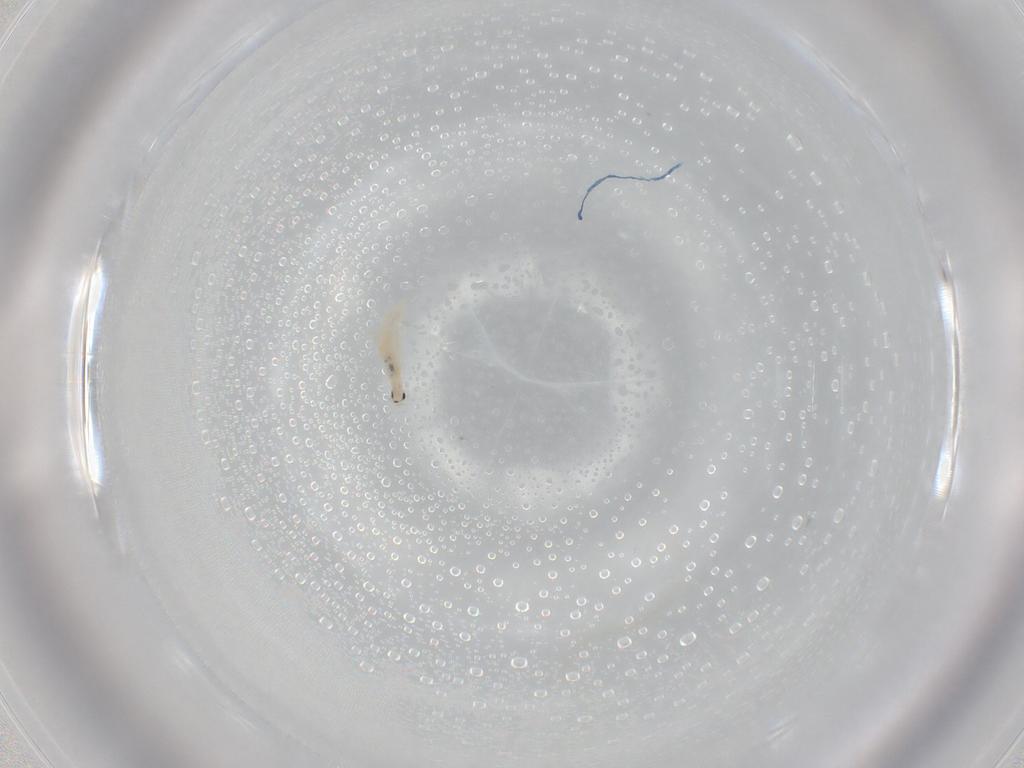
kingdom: Animalia
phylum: Arthropoda
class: Collembola
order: Entomobryomorpha
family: Entomobryidae
